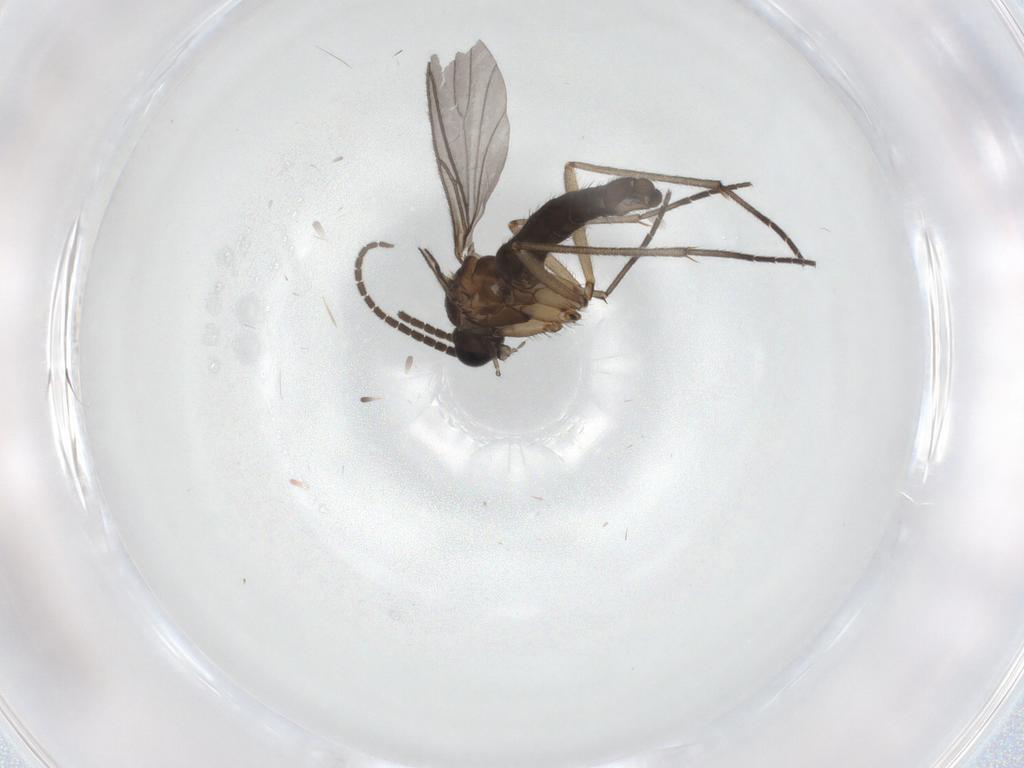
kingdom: Animalia
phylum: Arthropoda
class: Insecta
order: Diptera
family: Sciaridae
